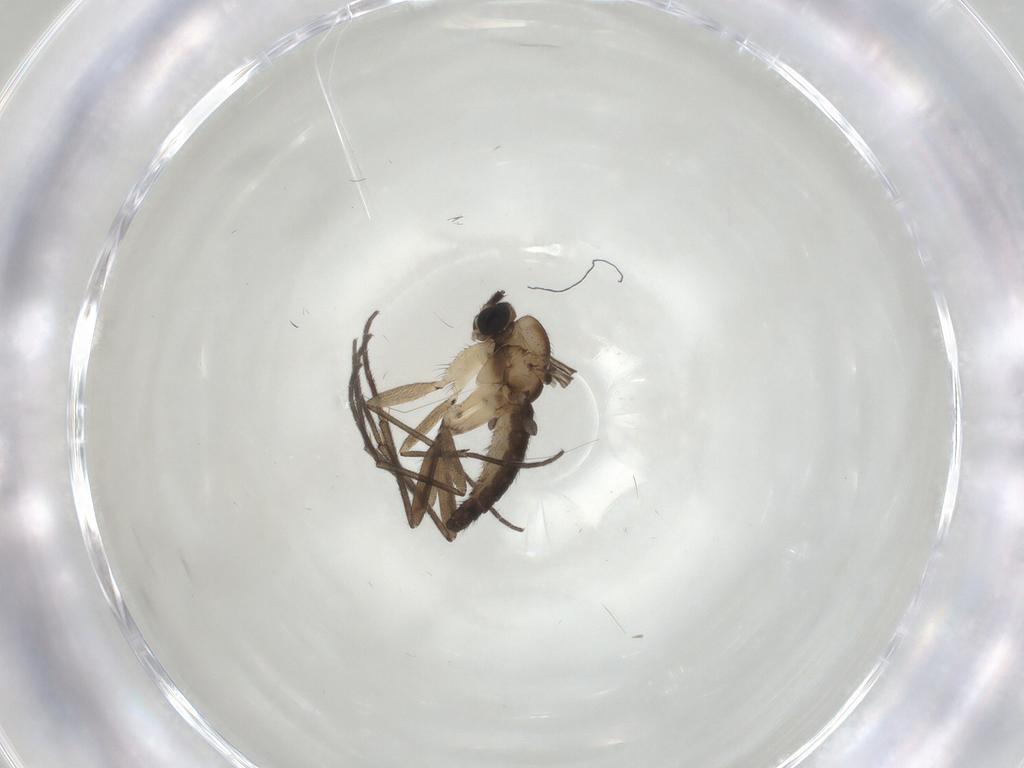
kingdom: Animalia
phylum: Arthropoda
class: Insecta
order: Diptera
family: Sciaridae
